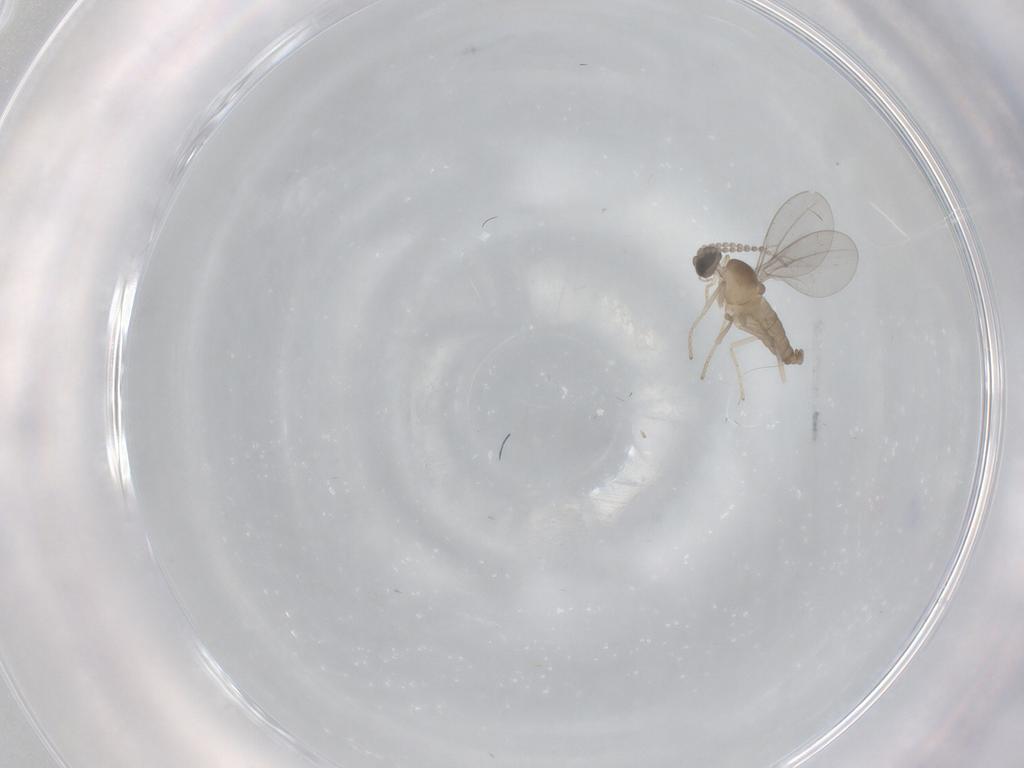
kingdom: Animalia
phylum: Arthropoda
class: Insecta
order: Diptera
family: Cecidomyiidae
